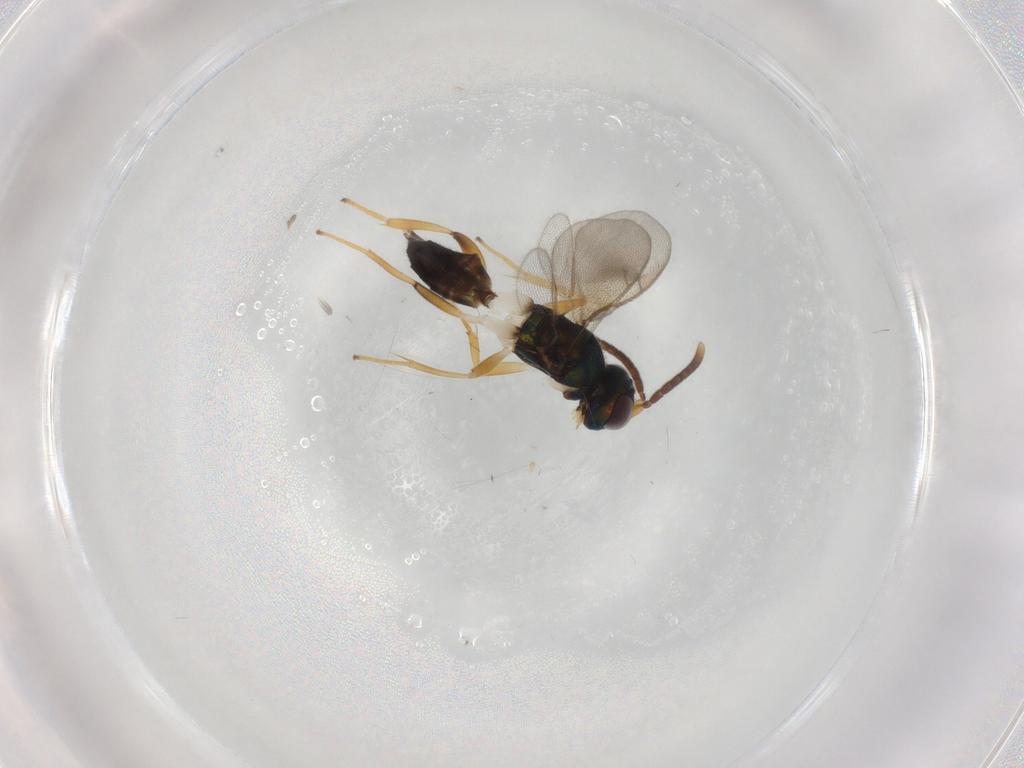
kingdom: Animalia
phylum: Arthropoda
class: Insecta
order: Hymenoptera
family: Eupelmidae
